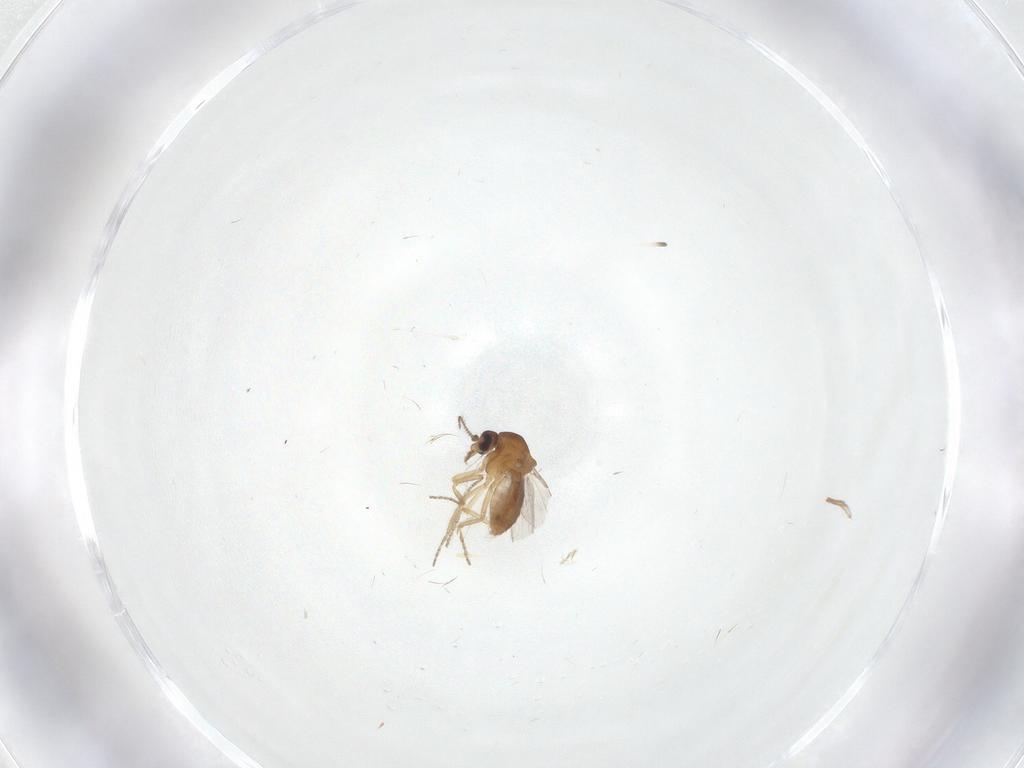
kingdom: Animalia
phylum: Arthropoda
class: Insecta
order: Diptera
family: Ceratopogonidae
